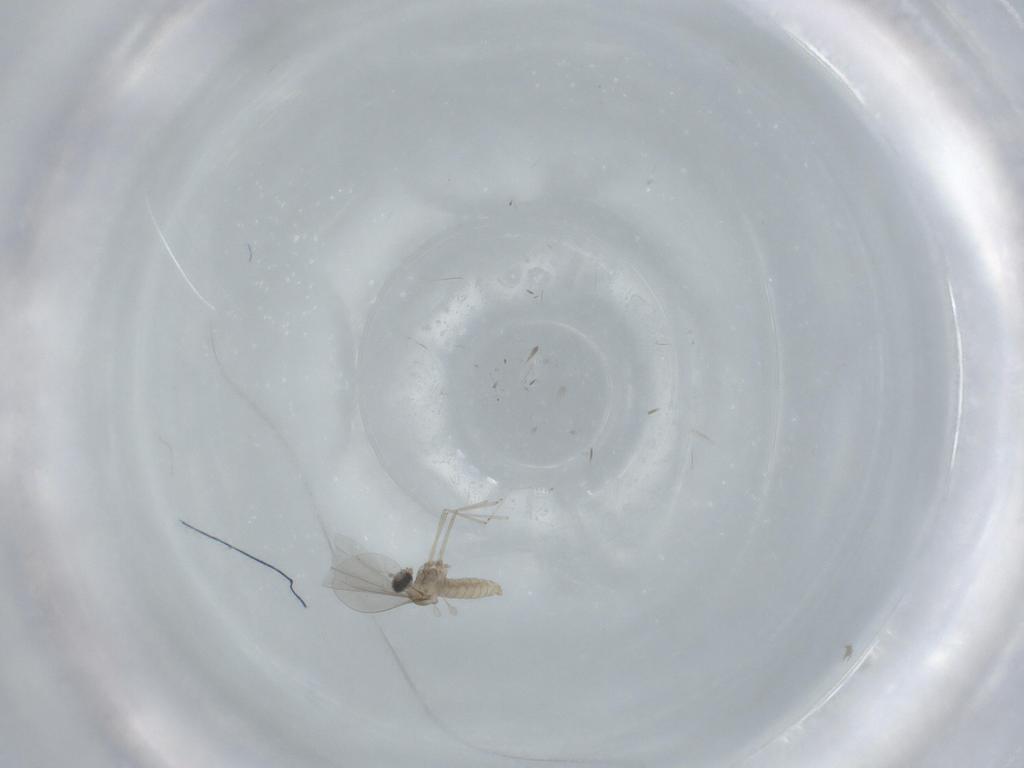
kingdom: Animalia
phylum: Arthropoda
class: Insecta
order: Diptera
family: Cecidomyiidae
